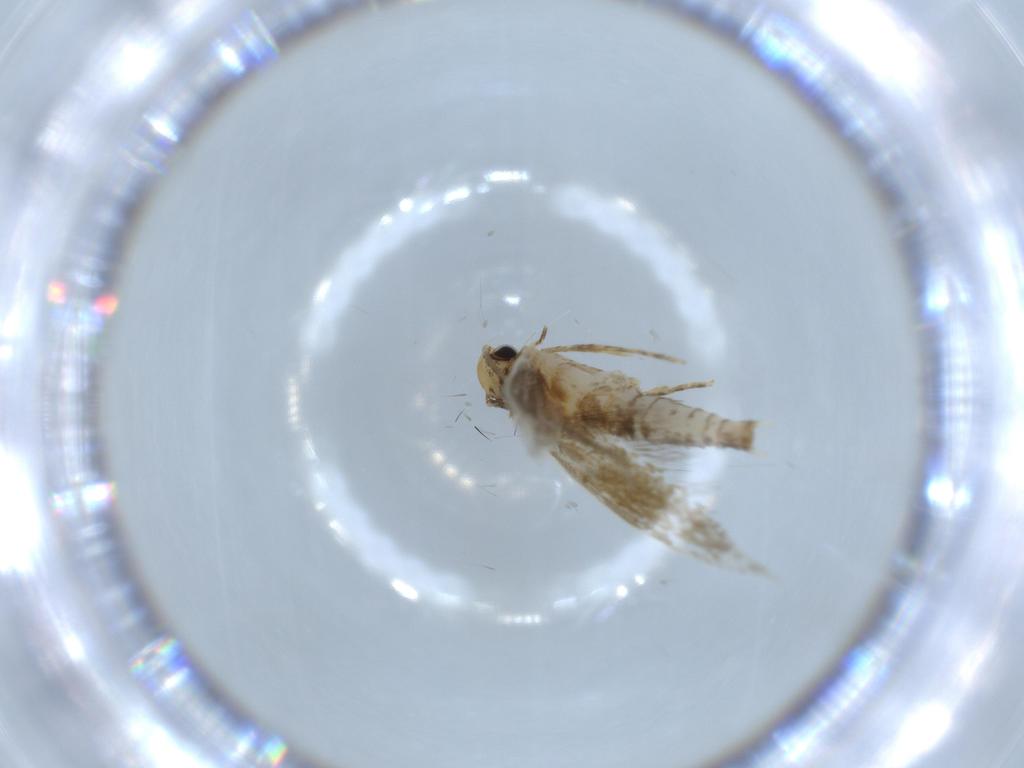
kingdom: Animalia
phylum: Arthropoda
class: Insecta
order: Lepidoptera
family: Tineidae
